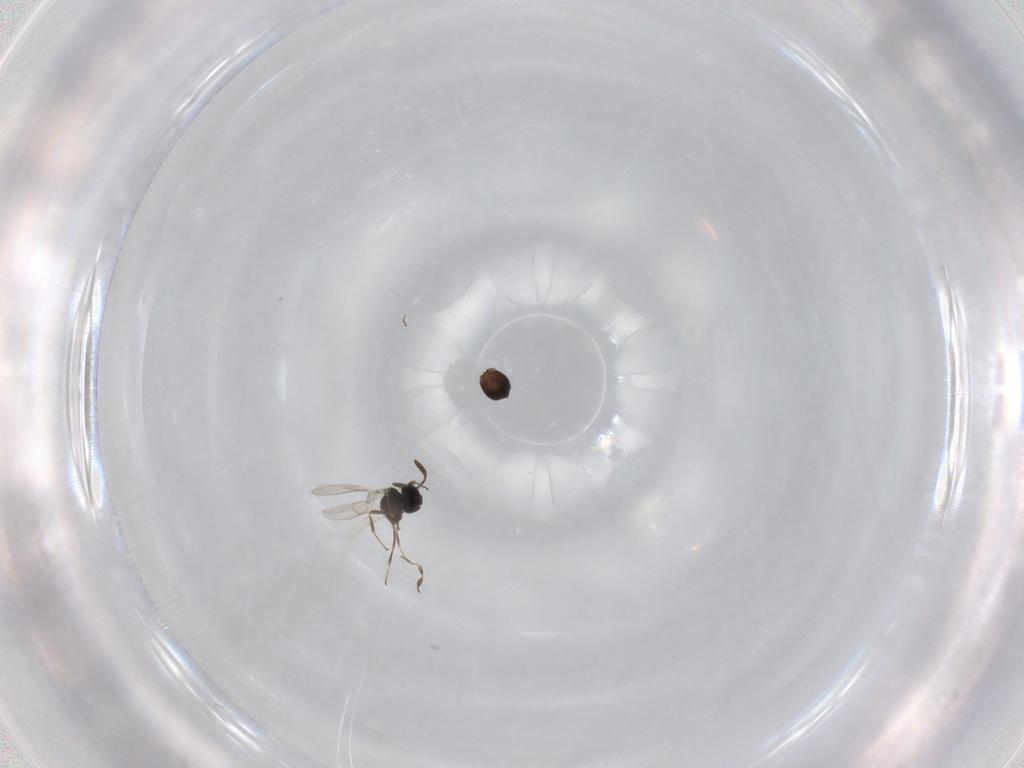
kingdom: Animalia
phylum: Arthropoda
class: Insecta
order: Hymenoptera
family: Scelionidae
